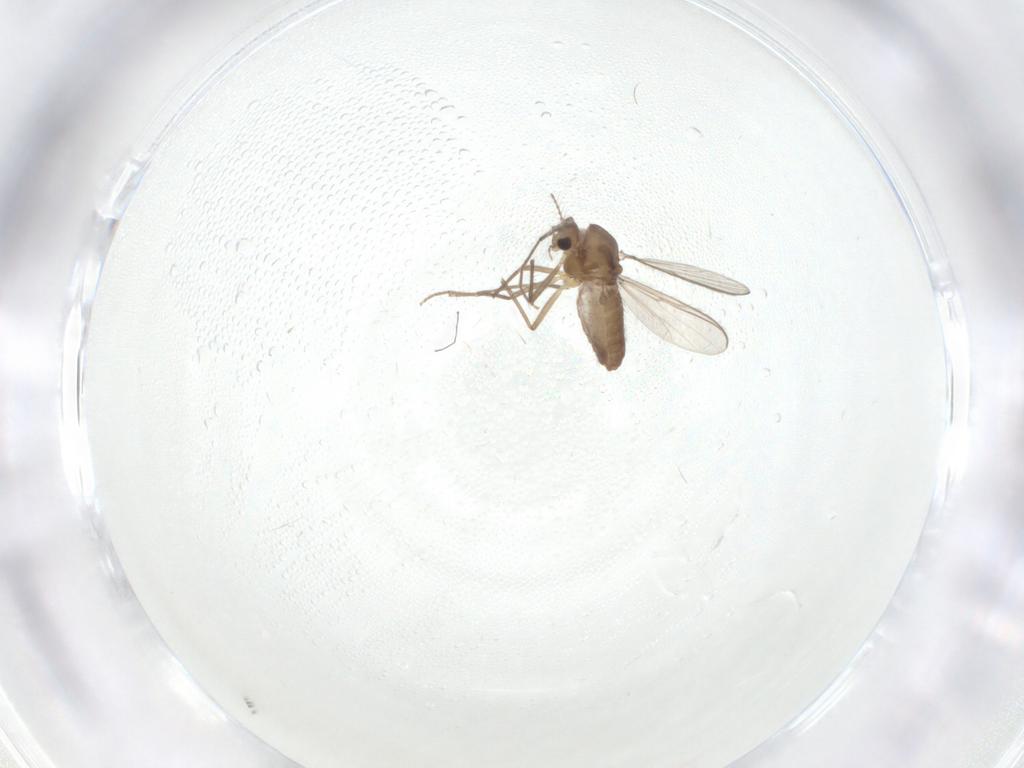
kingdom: Animalia
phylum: Arthropoda
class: Insecta
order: Diptera
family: Chironomidae
